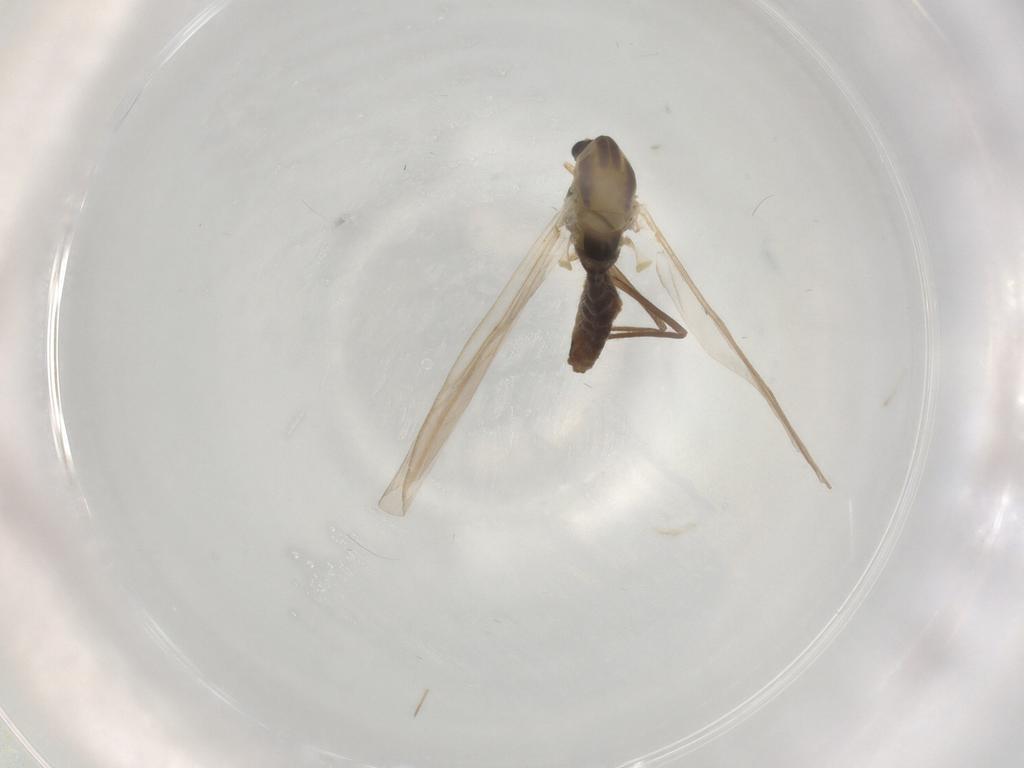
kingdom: Animalia
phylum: Arthropoda
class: Insecta
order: Diptera
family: Chironomidae
